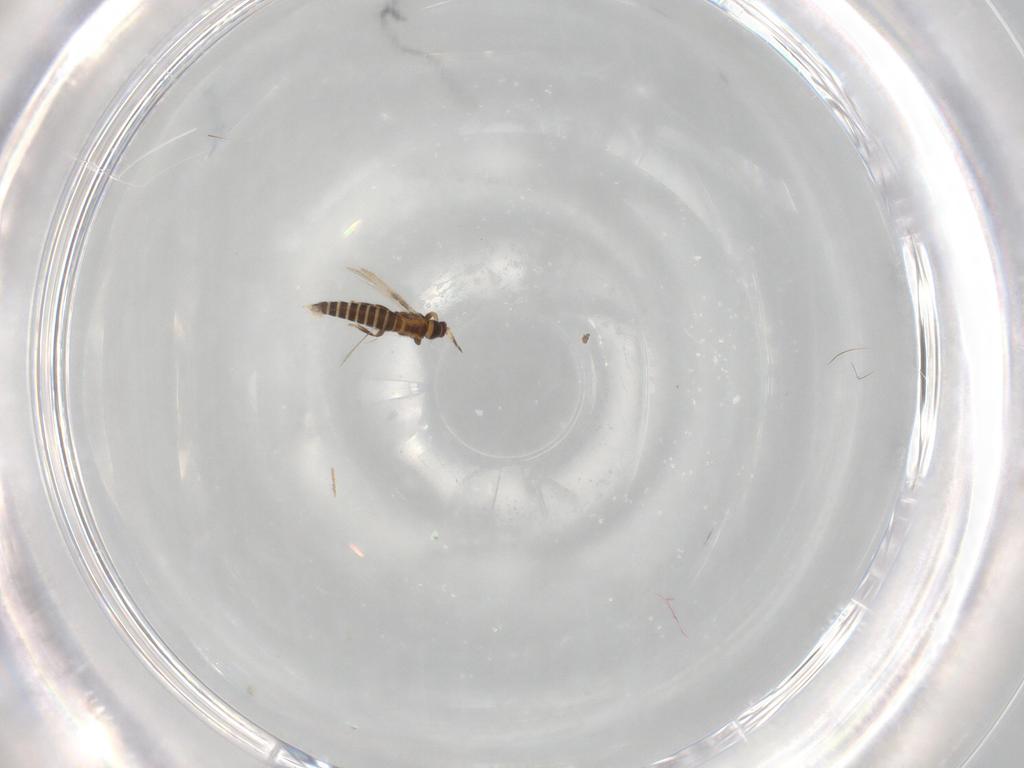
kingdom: Animalia
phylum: Arthropoda
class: Insecta
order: Thysanoptera
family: Thripidae
